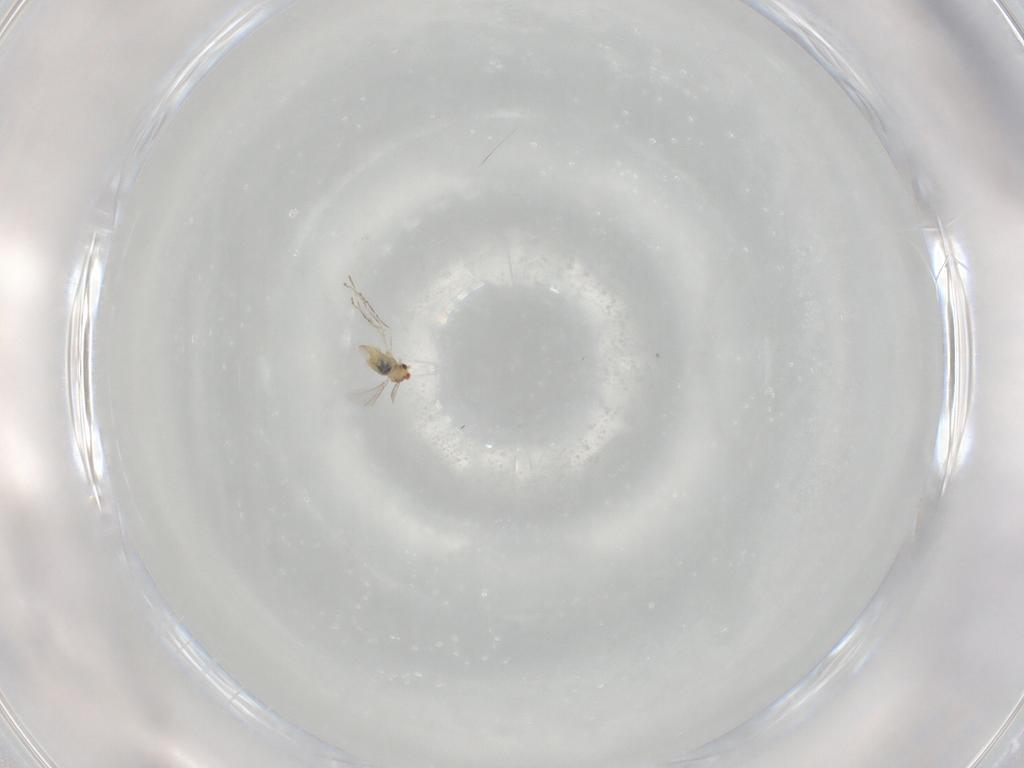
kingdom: Animalia
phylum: Arthropoda
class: Insecta
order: Diptera
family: Cecidomyiidae
